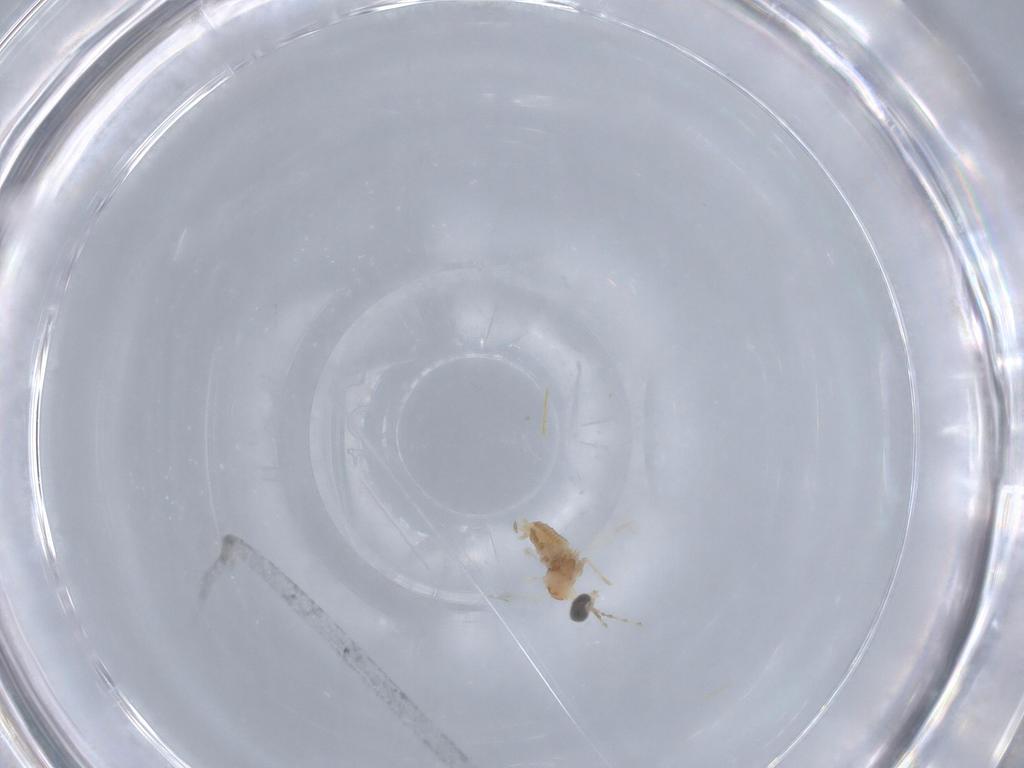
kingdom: Animalia
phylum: Arthropoda
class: Insecta
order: Diptera
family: Cecidomyiidae
